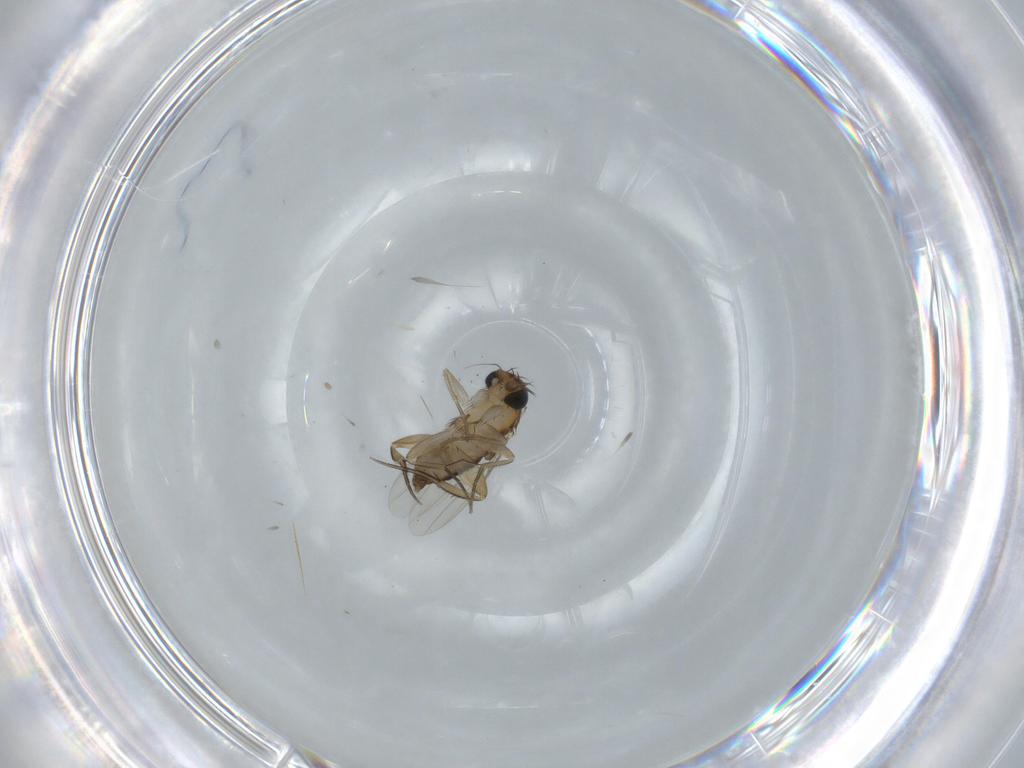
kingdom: Animalia
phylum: Arthropoda
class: Insecta
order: Diptera
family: Phoridae
